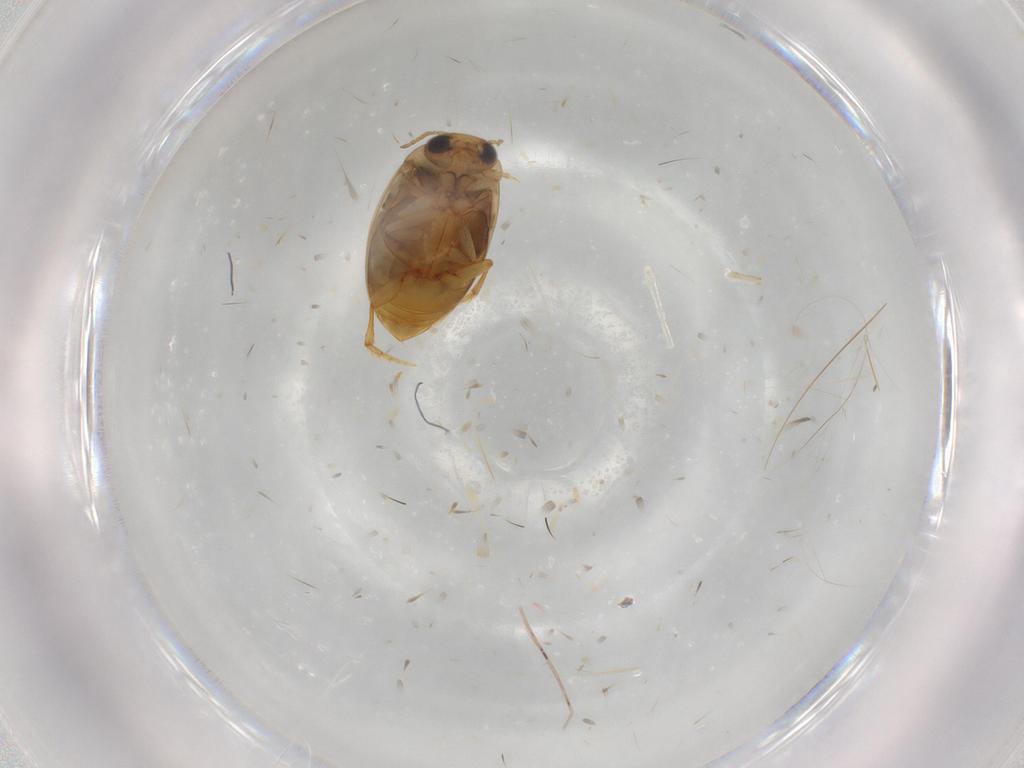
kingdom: Animalia
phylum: Arthropoda
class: Insecta
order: Coleoptera
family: Dytiscidae
